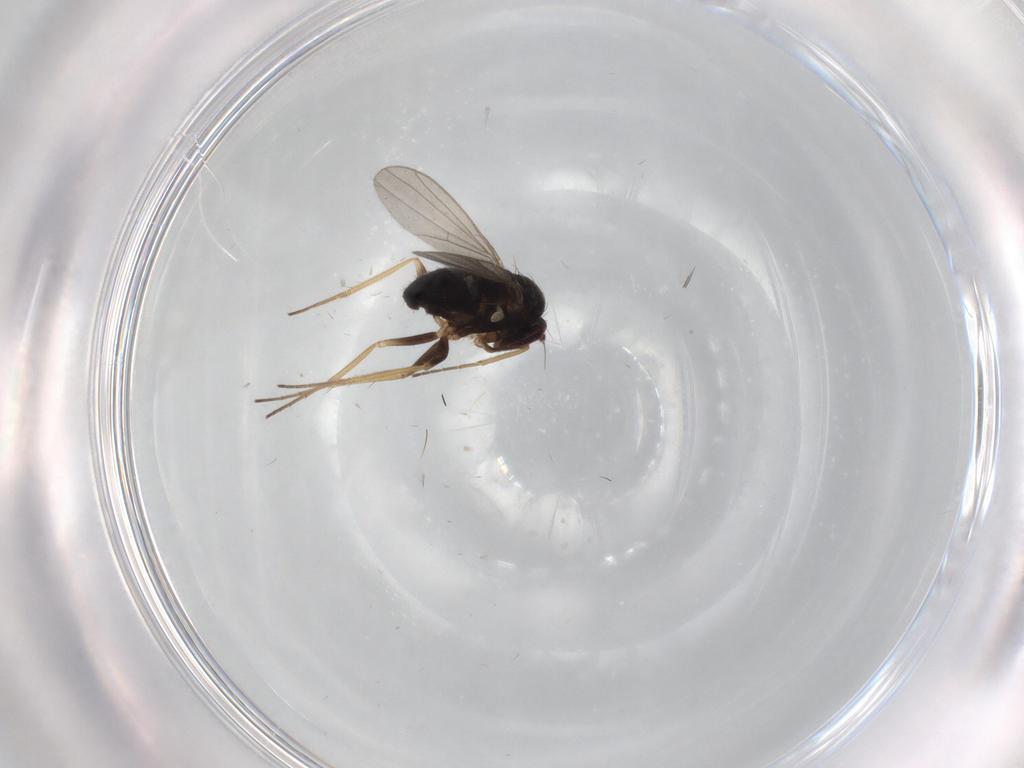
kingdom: Animalia
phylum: Arthropoda
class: Insecta
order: Diptera
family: Dolichopodidae
